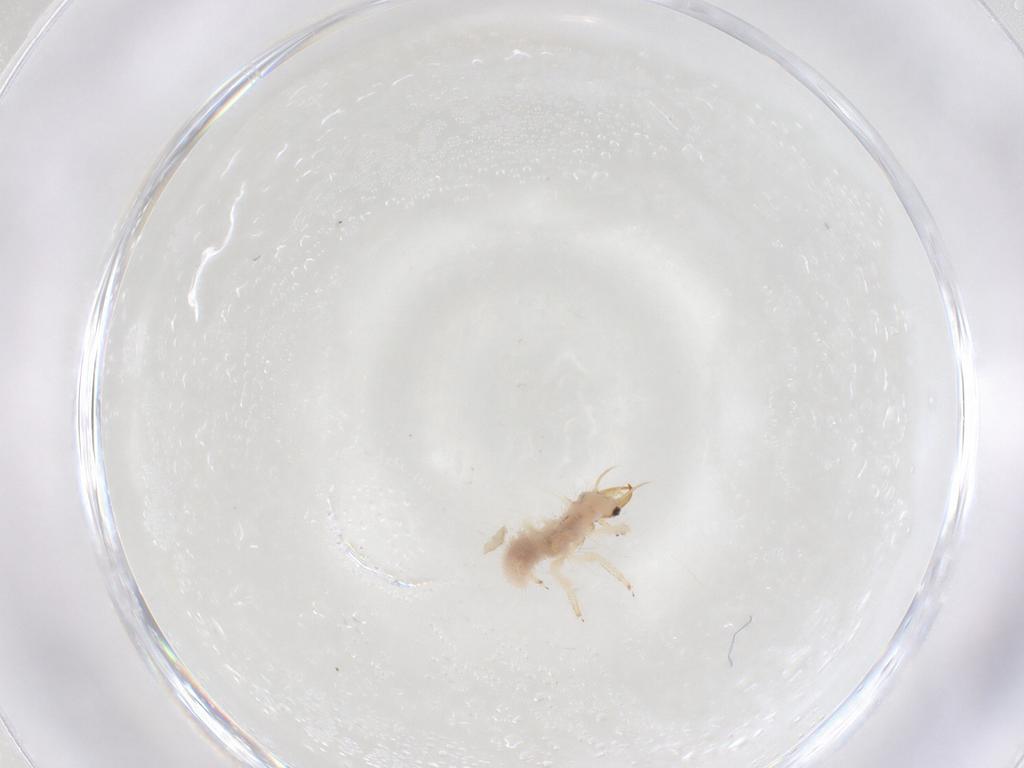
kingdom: Animalia
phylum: Arthropoda
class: Insecta
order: Neuroptera
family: Chrysopidae
